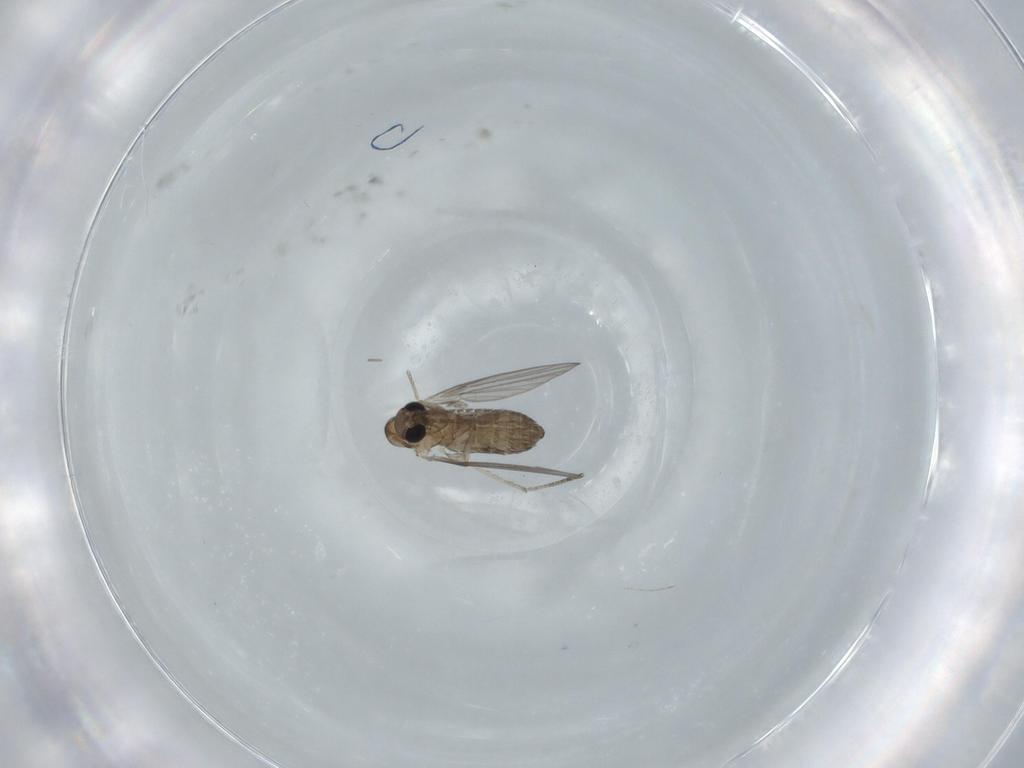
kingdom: Animalia
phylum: Arthropoda
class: Insecta
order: Diptera
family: Psychodidae
